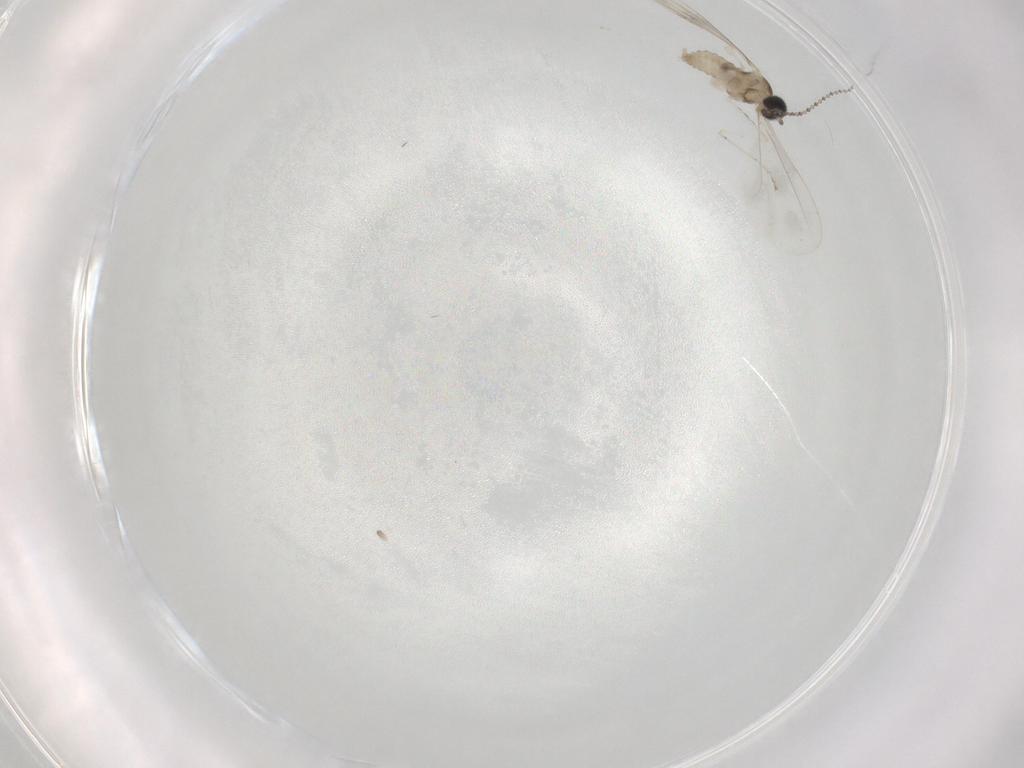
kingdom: Animalia
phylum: Arthropoda
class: Insecta
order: Diptera
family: Cecidomyiidae
